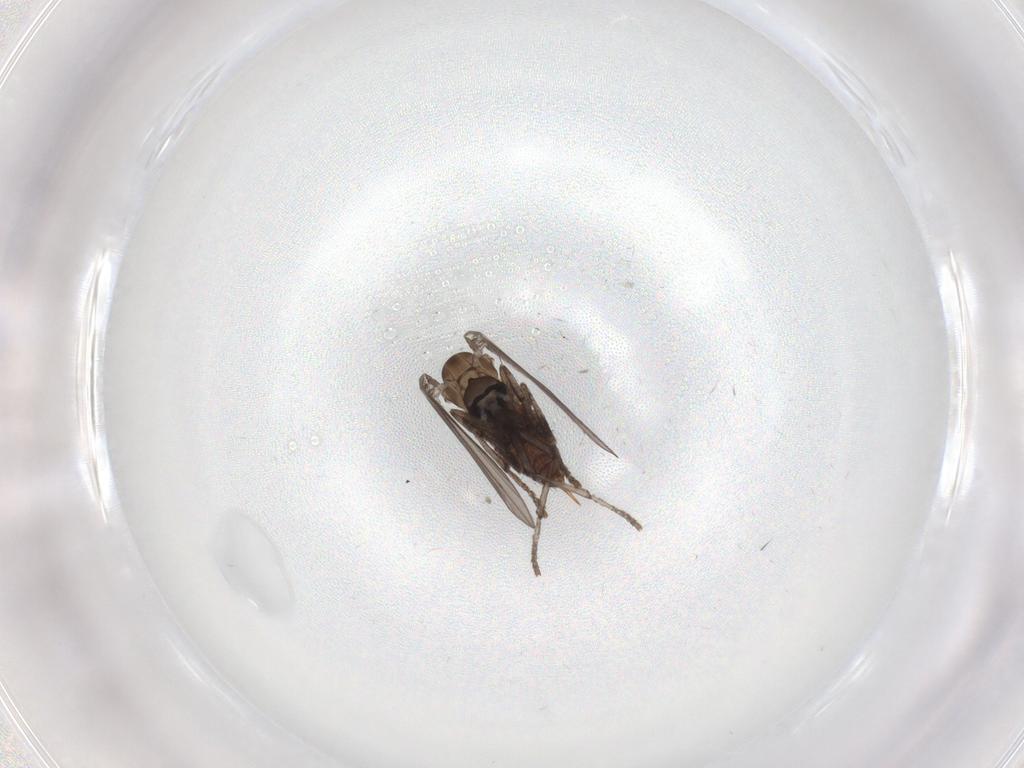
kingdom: Animalia
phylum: Arthropoda
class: Insecta
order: Diptera
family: Psychodidae
